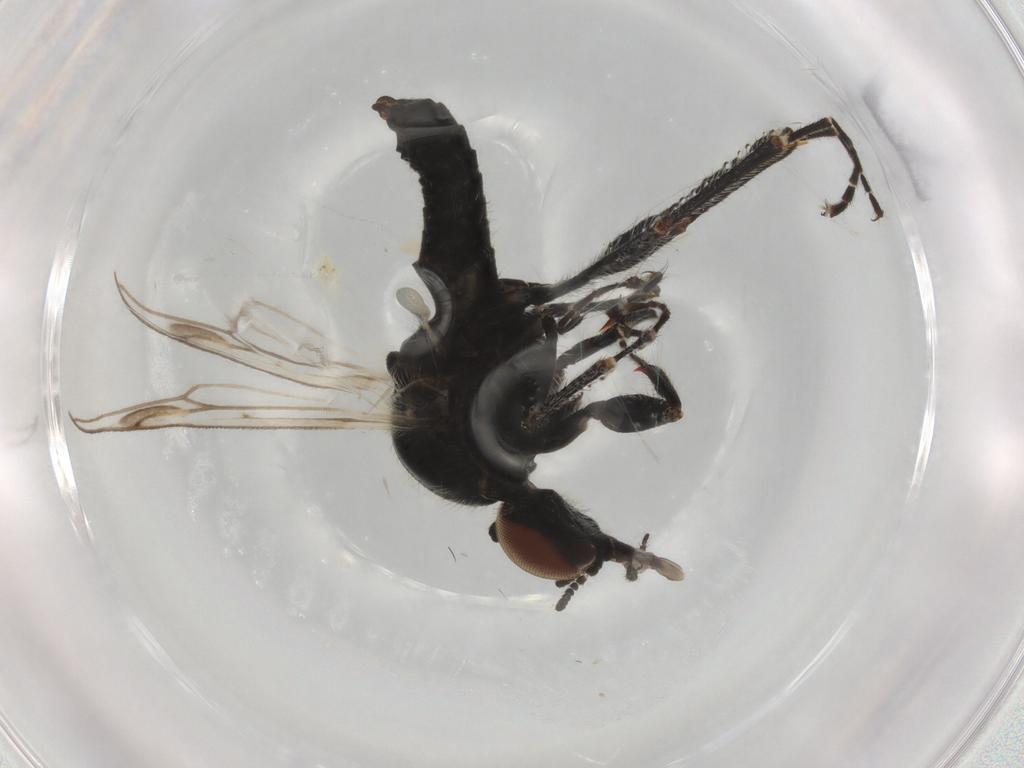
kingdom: Animalia
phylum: Arthropoda
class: Insecta
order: Diptera
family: Bibionidae
